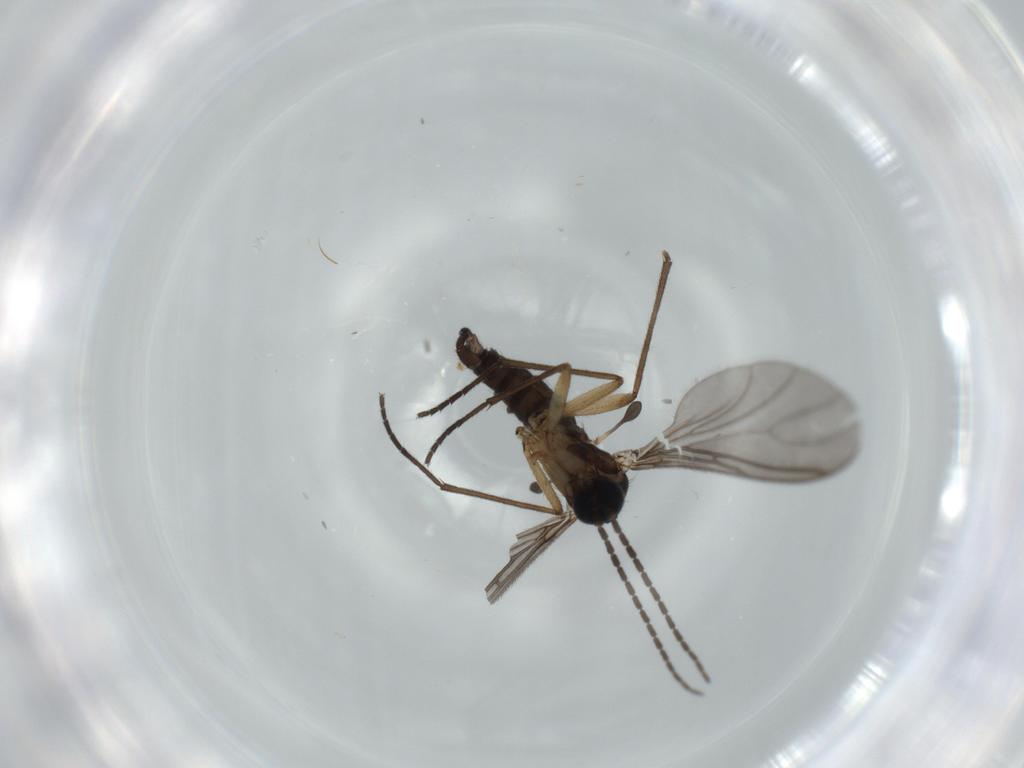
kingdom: Animalia
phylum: Arthropoda
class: Insecta
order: Diptera
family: Sciaridae
